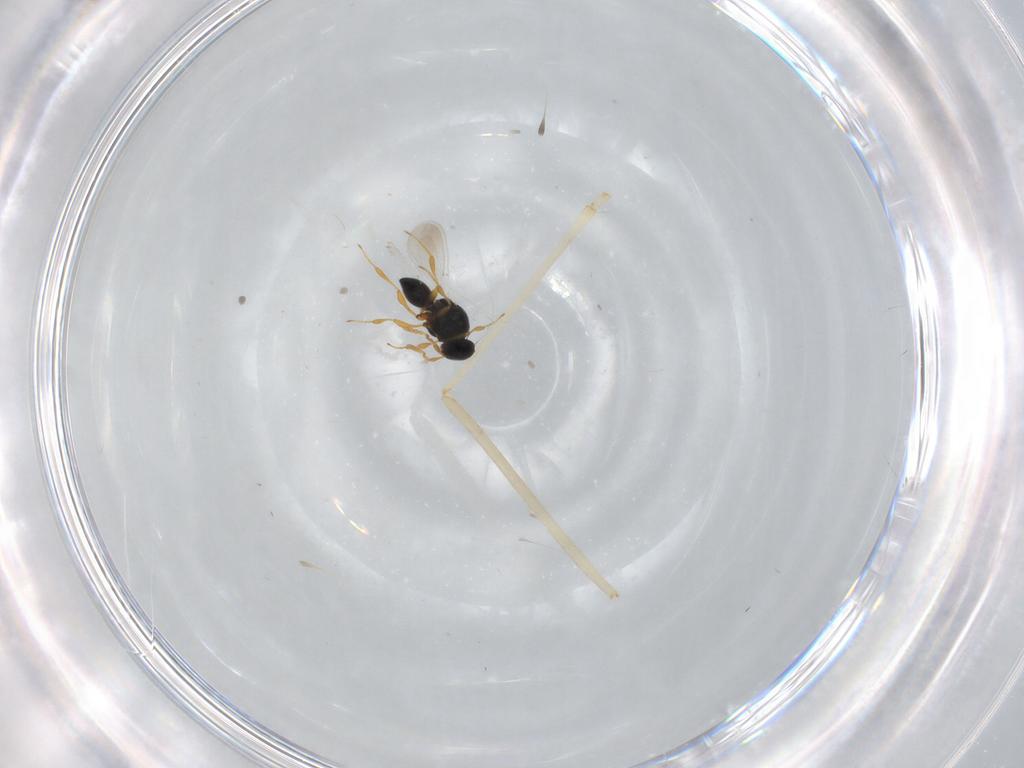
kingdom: Animalia
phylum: Arthropoda
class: Insecta
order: Hymenoptera
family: Platygastridae
